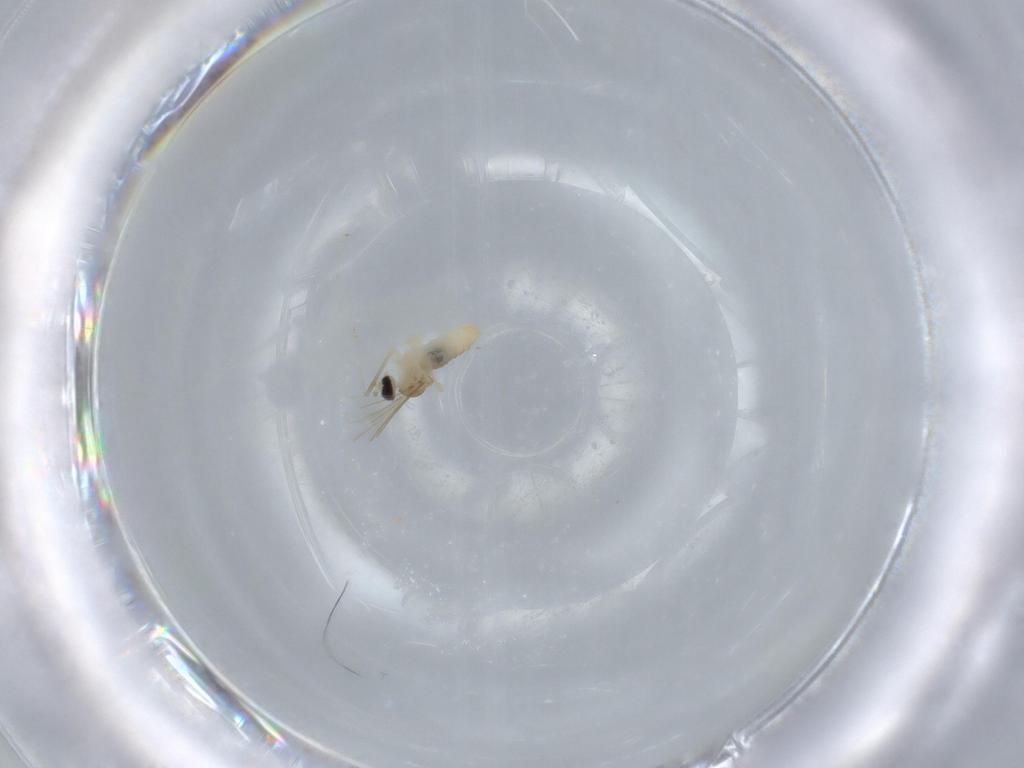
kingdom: Animalia
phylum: Arthropoda
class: Insecta
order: Diptera
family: Cecidomyiidae
